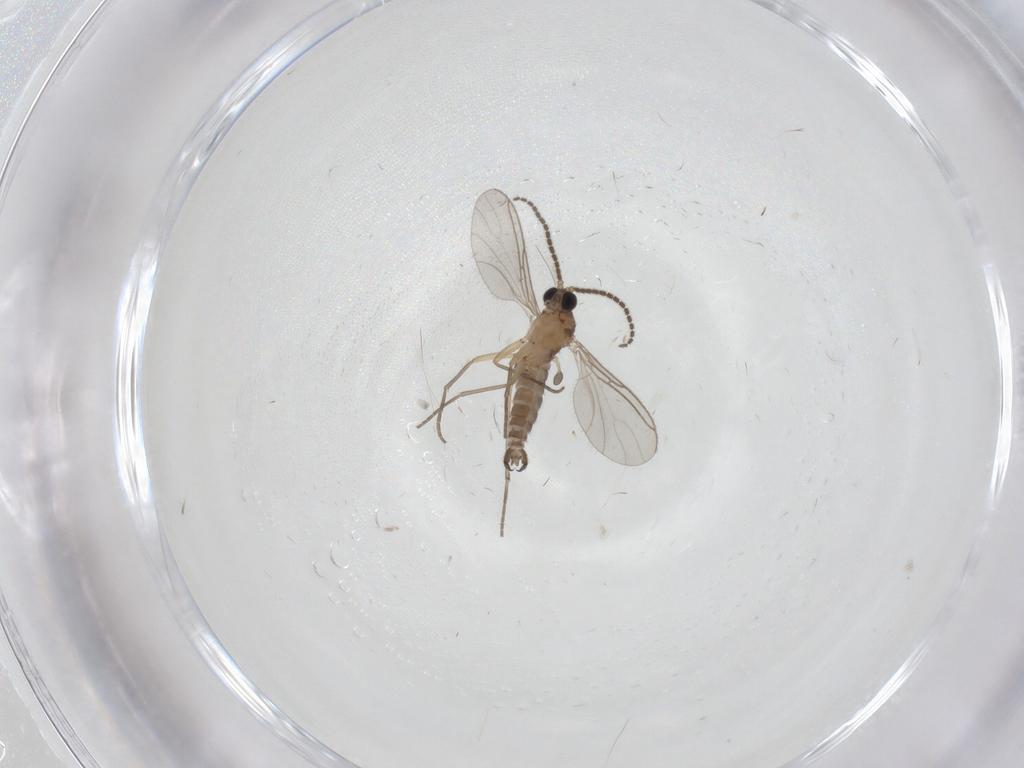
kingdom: Animalia
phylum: Arthropoda
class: Insecta
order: Diptera
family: Sciaridae
